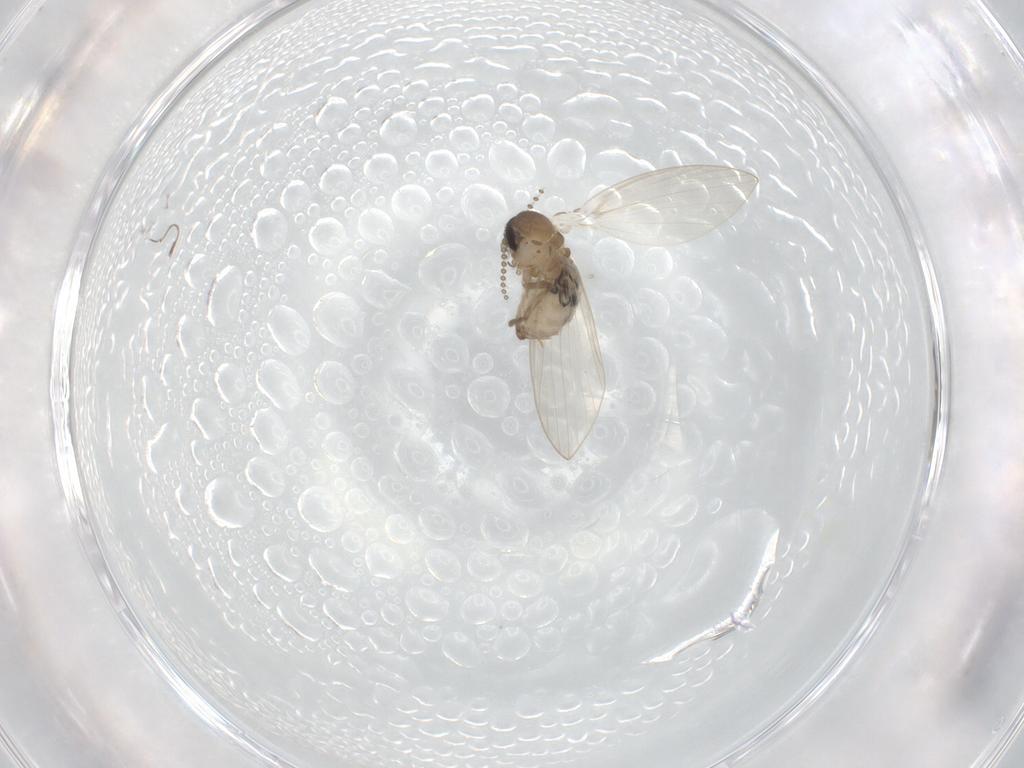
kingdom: Animalia
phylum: Arthropoda
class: Insecta
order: Diptera
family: Psychodidae
